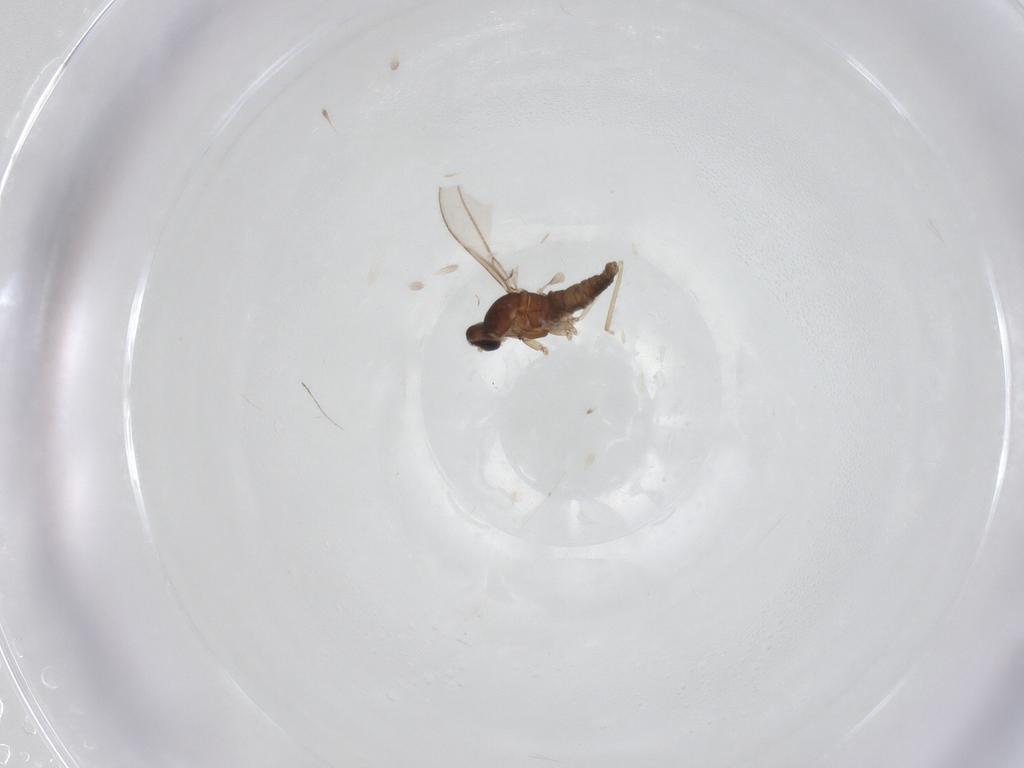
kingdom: Animalia
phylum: Arthropoda
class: Insecta
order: Diptera
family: Cecidomyiidae
